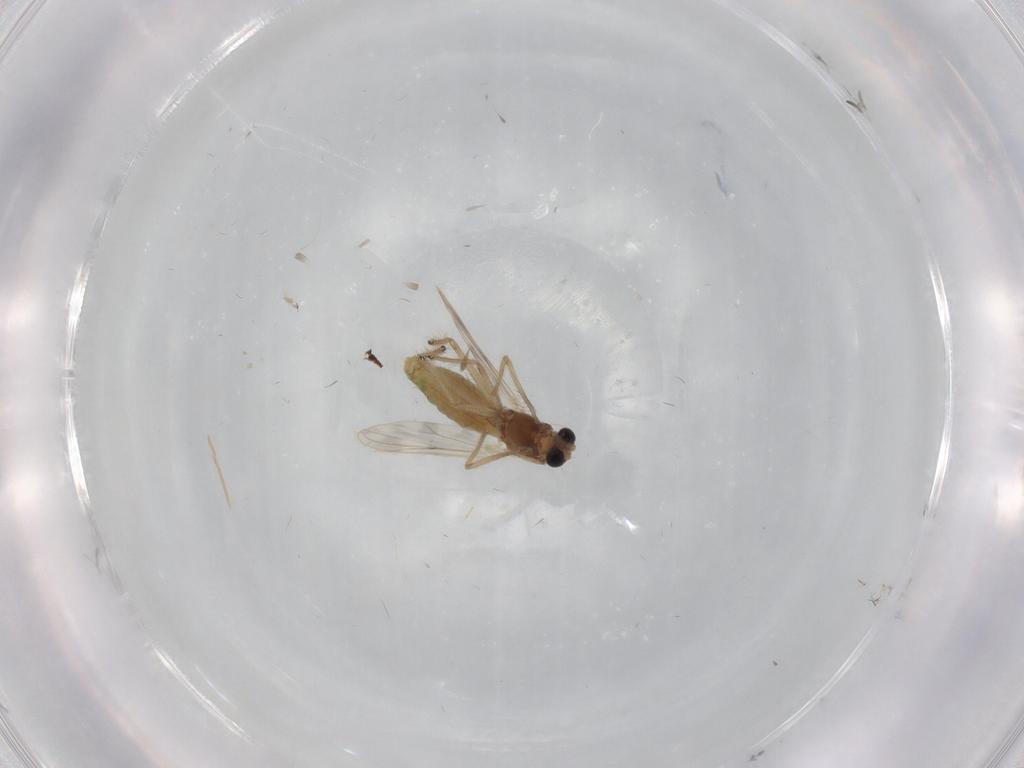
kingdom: Animalia
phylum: Arthropoda
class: Insecta
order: Diptera
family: Chironomidae
